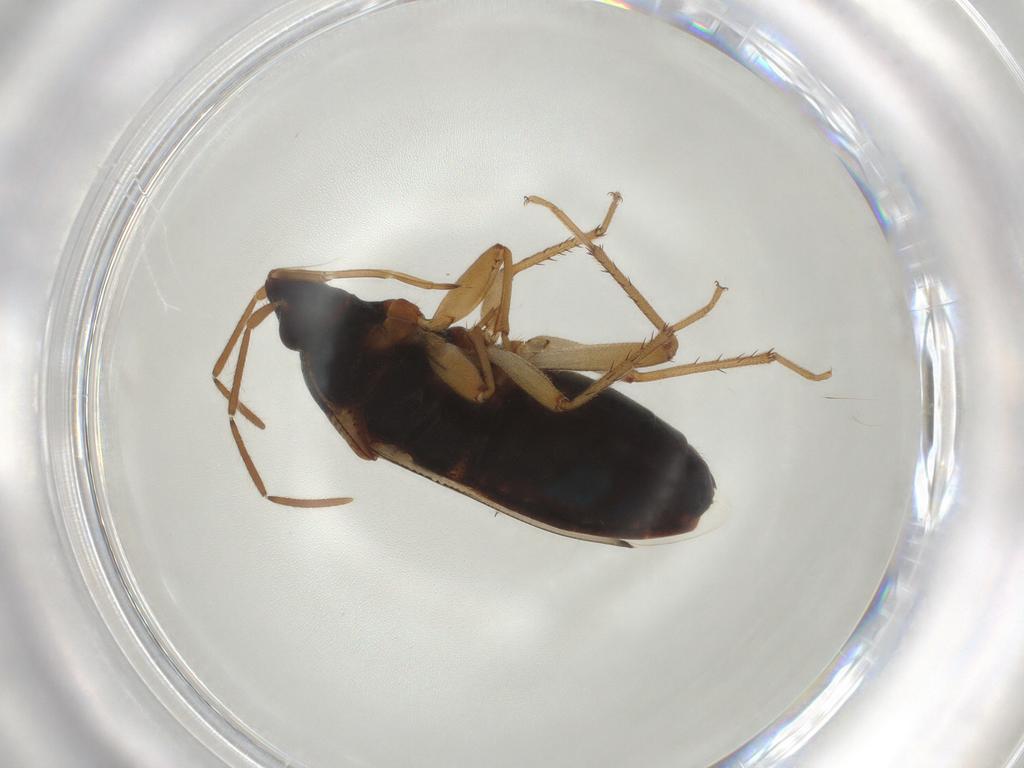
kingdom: Animalia
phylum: Arthropoda
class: Insecta
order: Hemiptera
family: Rhyparochromidae
